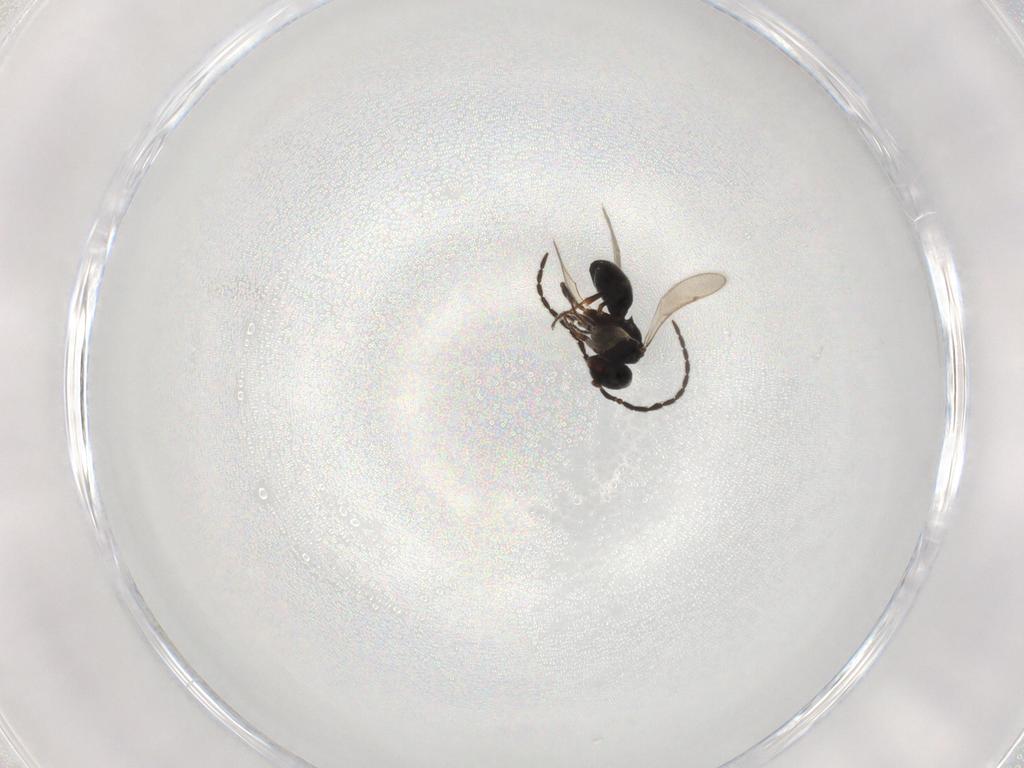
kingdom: Animalia
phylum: Arthropoda
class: Insecta
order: Hymenoptera
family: Scelionidae
